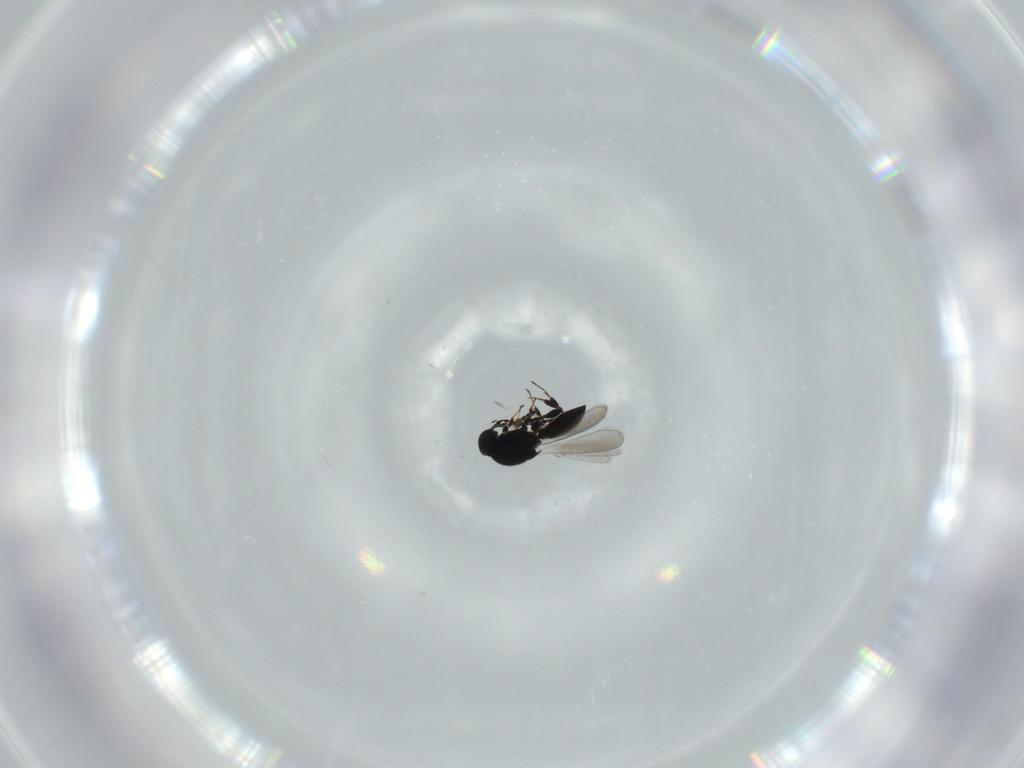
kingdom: Animalia
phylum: Arthropoda
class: Insecta
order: Hymenoptera
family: Platygastridae
